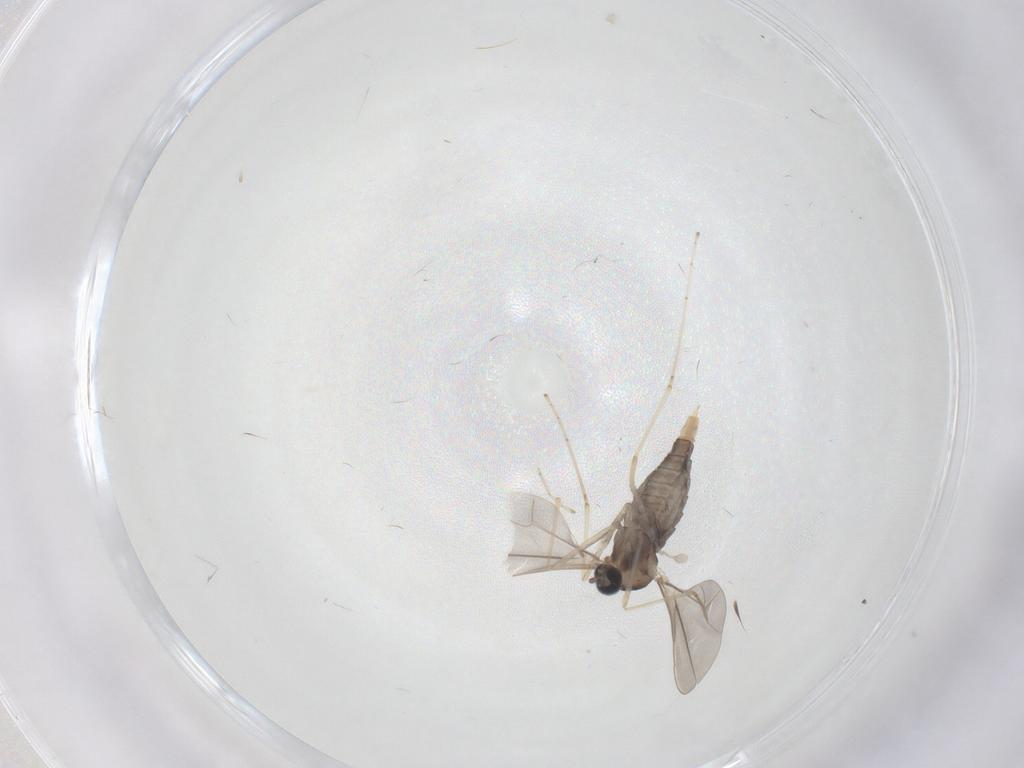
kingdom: Animalia
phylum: Arthropoda
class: Insecta
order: Diptera
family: Cecidomyiidae
